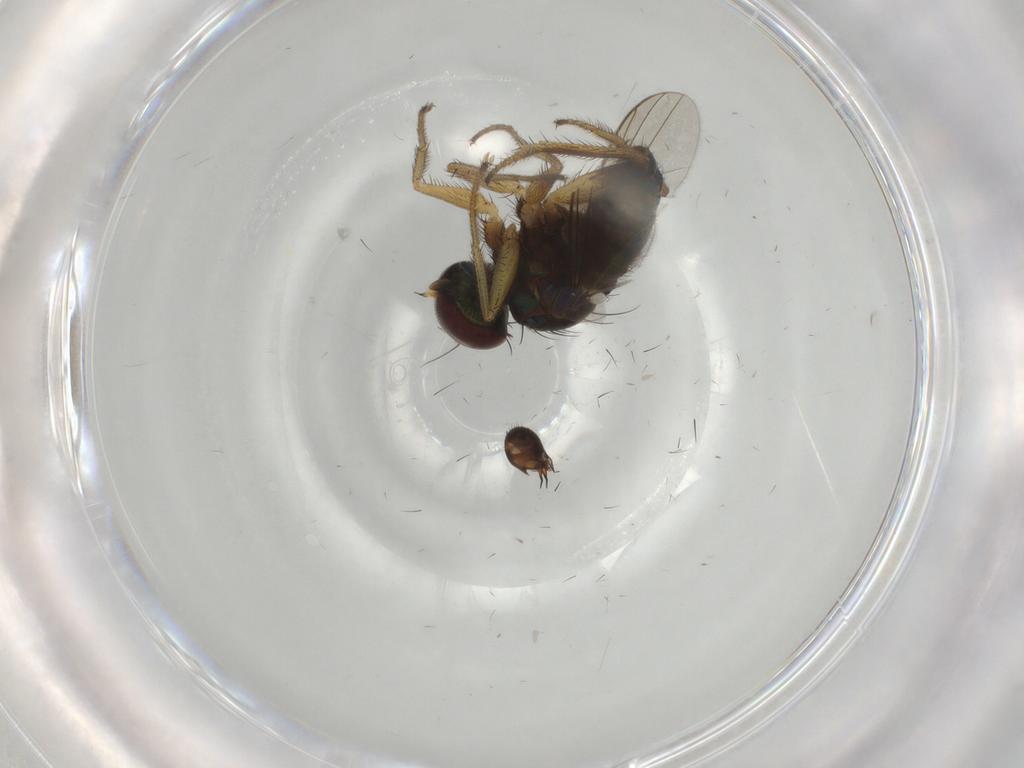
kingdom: Animalia
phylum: Arthropoda
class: Insecta
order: Diptera
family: Dolichopodidae
